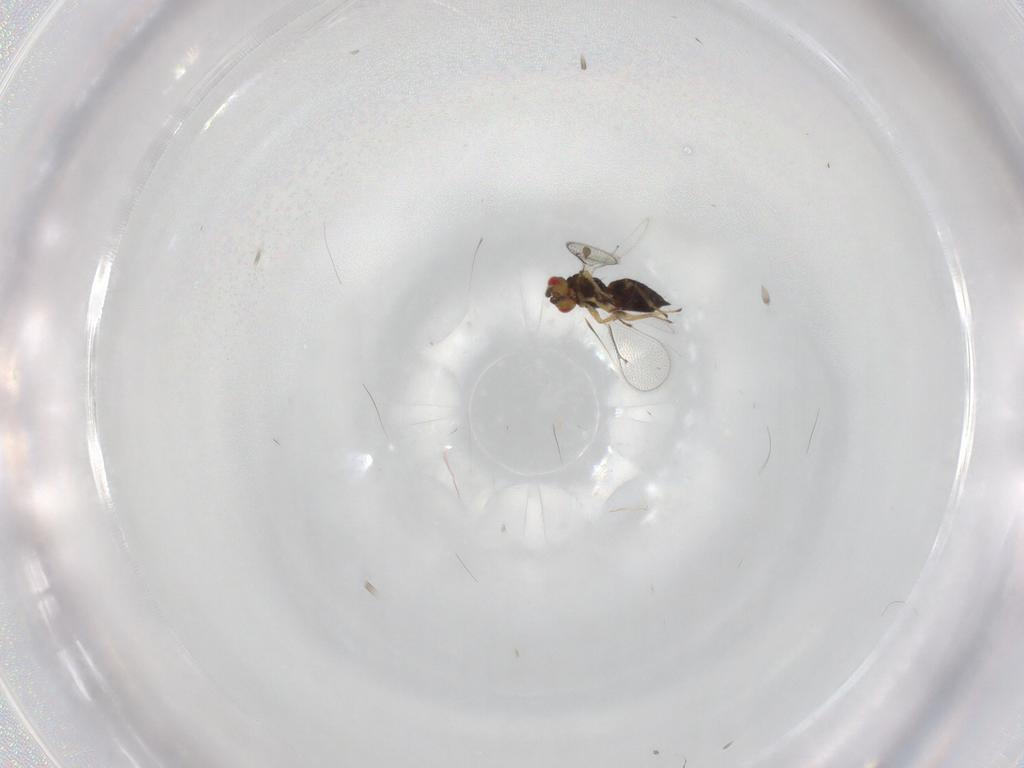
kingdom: Animalia
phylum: Arthropoda
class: Insecta
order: Hymenoptera
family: Eulophidae
